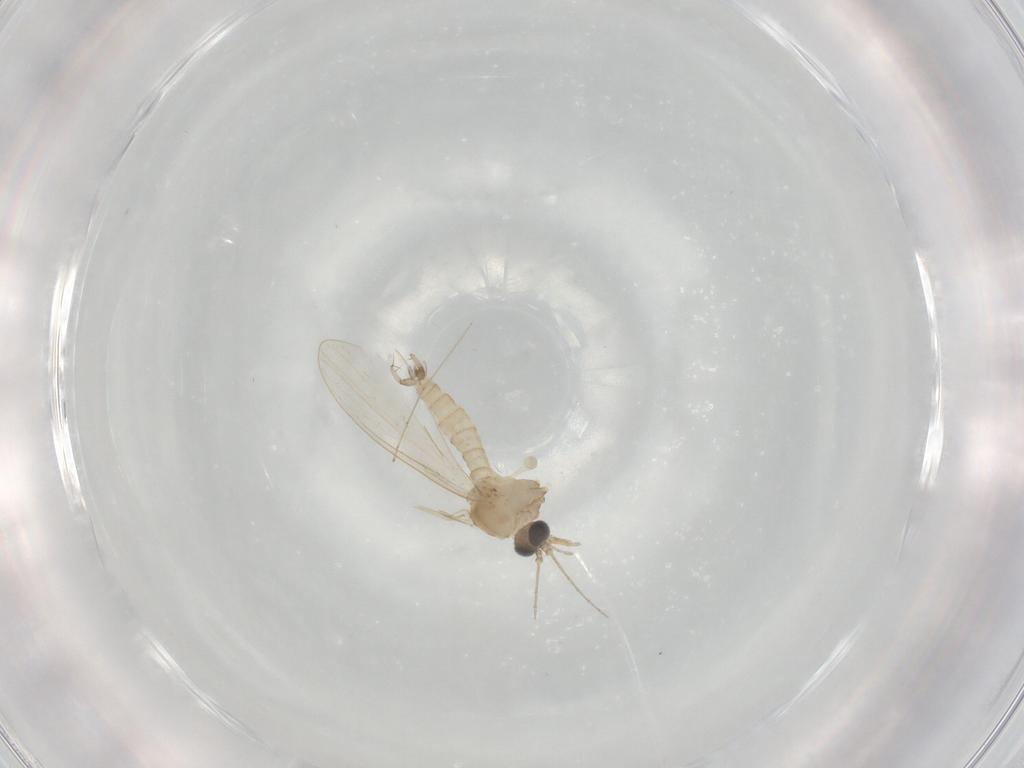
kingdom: Animalia
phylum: Arthropoda
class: Insecta
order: Diptera
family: Psychodidae
